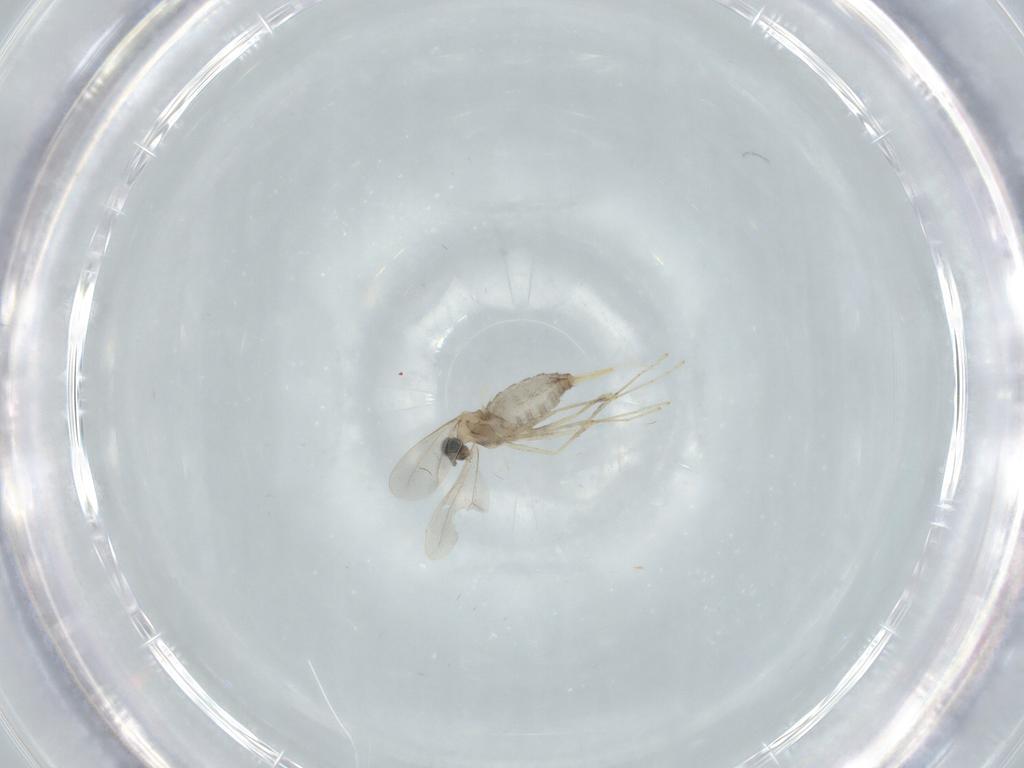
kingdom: Animalia
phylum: Arthropoda
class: Insecta
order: Diptera
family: Cecidomyiidae
